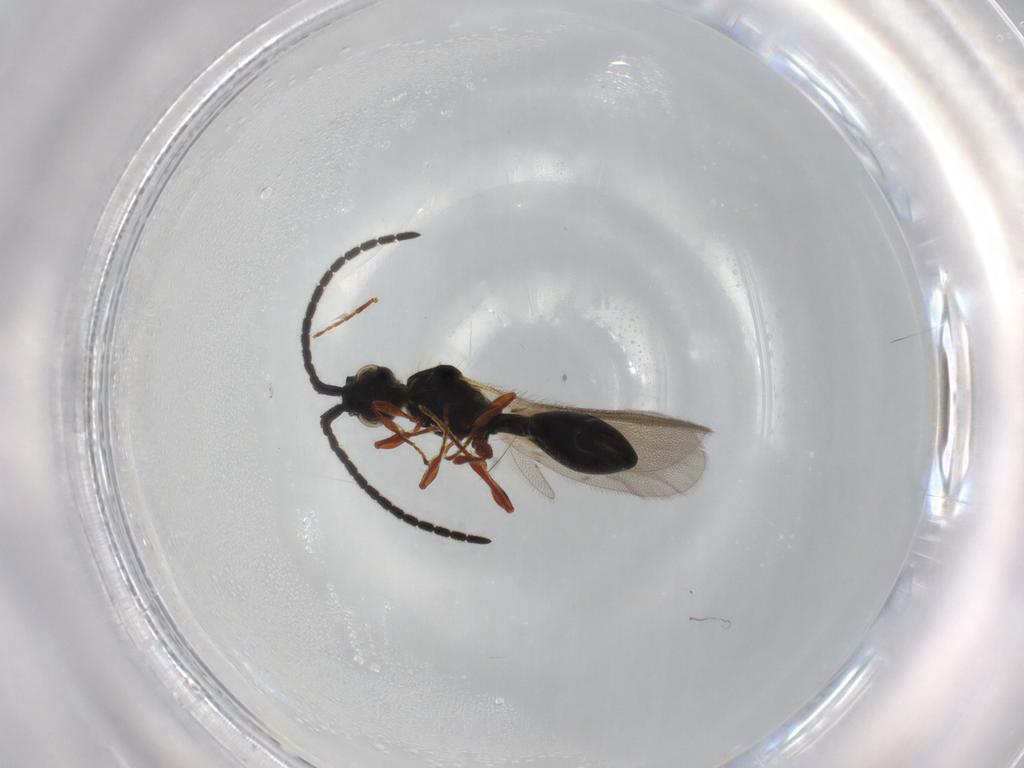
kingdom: Animalia
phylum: Arthropoda
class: Insecta
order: Hymenoptera
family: Diapriidae
